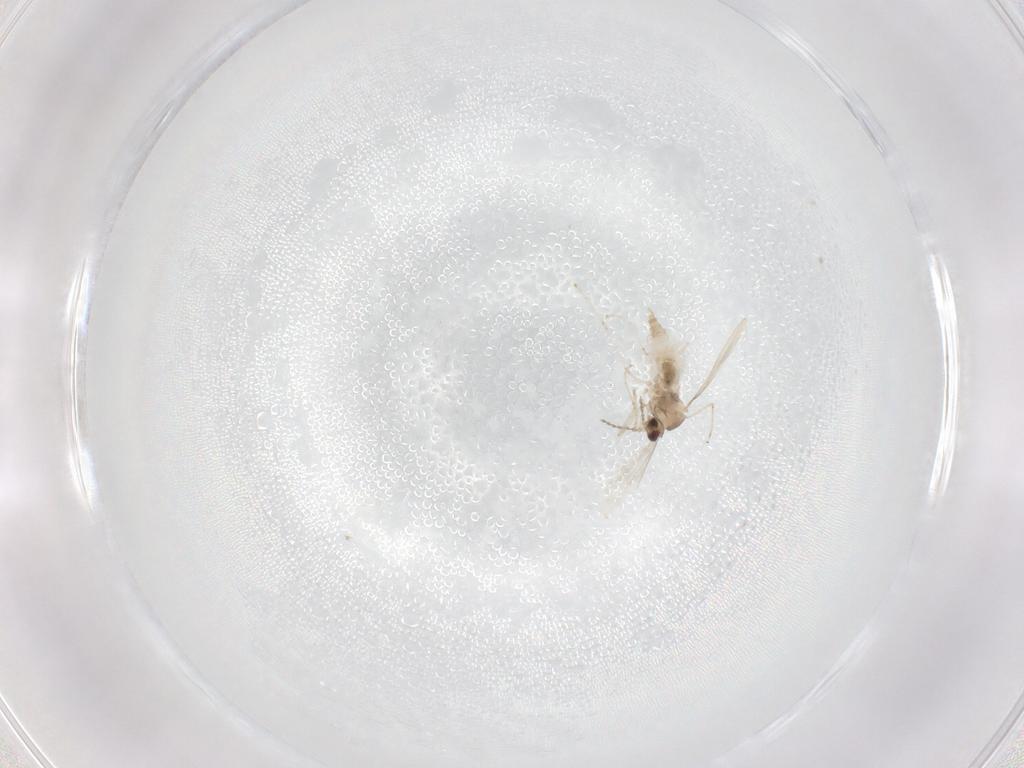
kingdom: Animalia
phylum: Arthropoda
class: Insecta
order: Diptera
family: Cecidomyiidae
